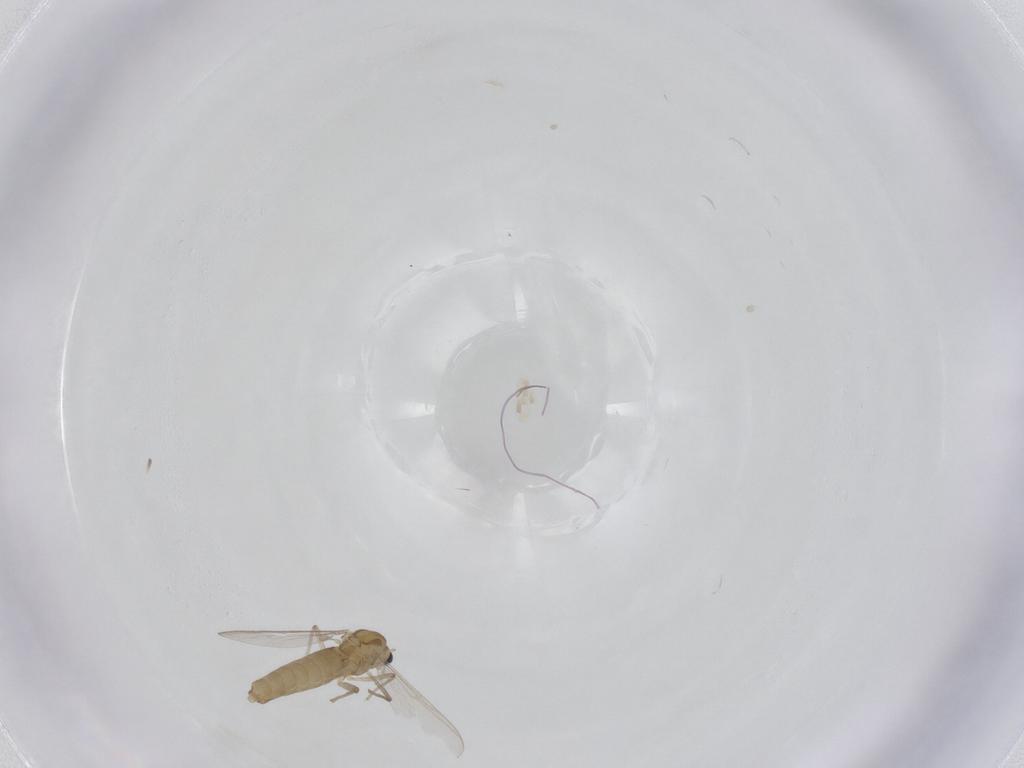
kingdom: Animalia
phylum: Arthropoda
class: Insecta
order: Diptera
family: Chironomidae
